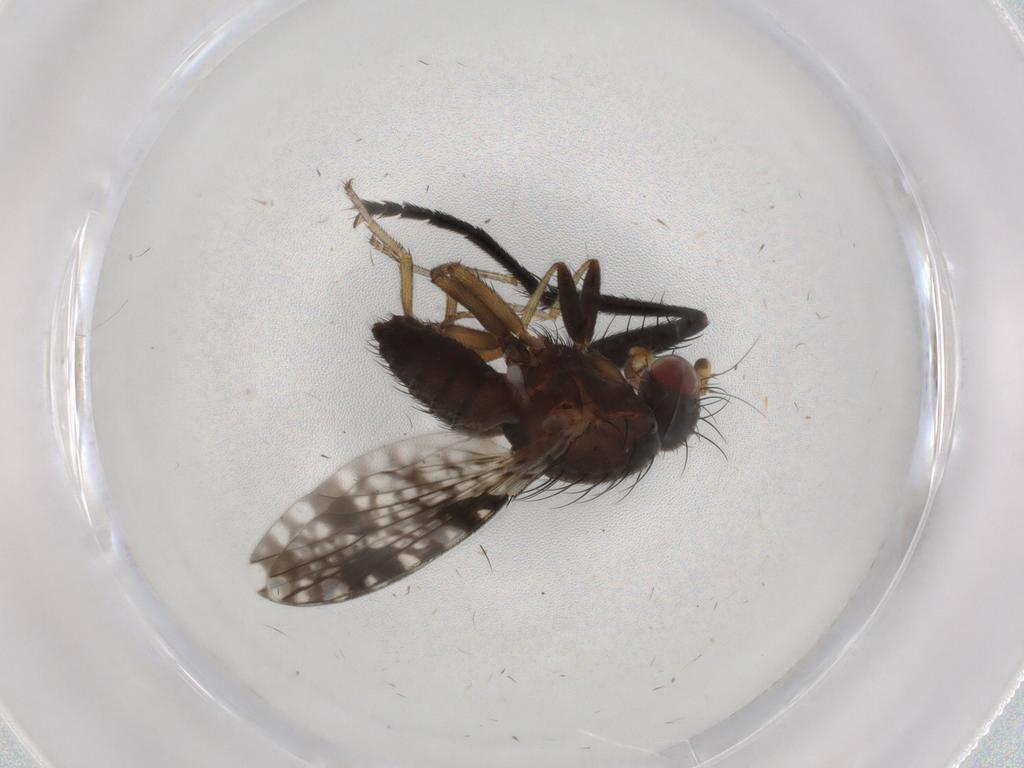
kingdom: Animalia
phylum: Arthropoda
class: Insecta
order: Diptera
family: Tephritidae
